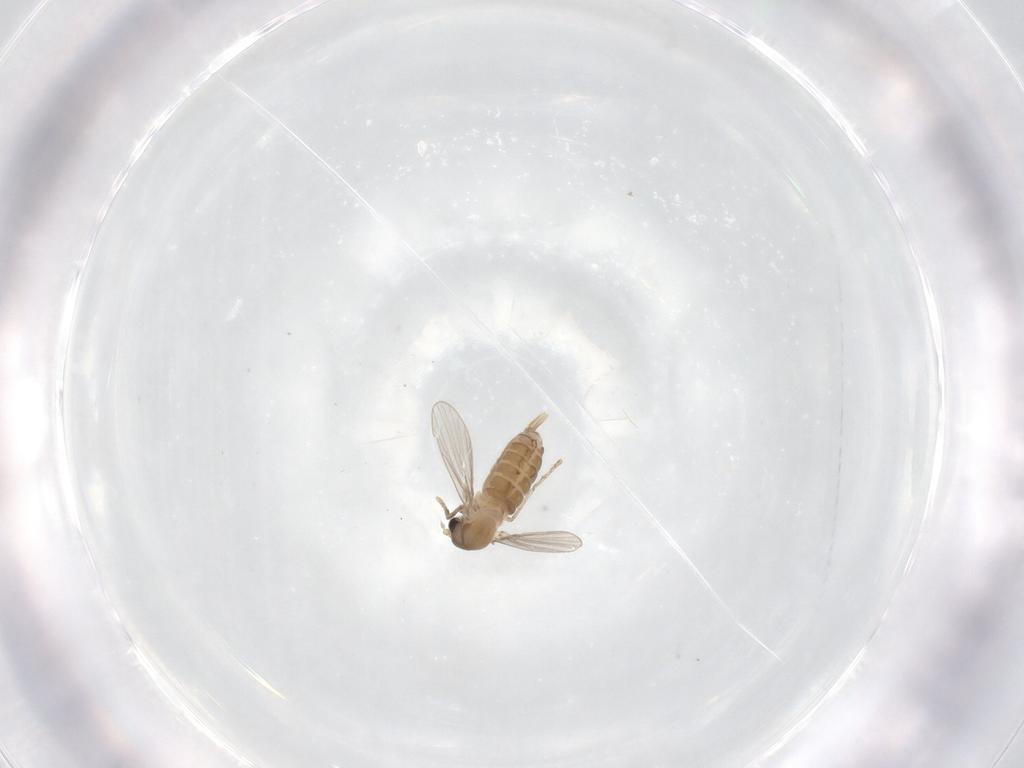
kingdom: Animalia
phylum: Arthropoda
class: Insecta
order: Diptera
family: Psychodidae
